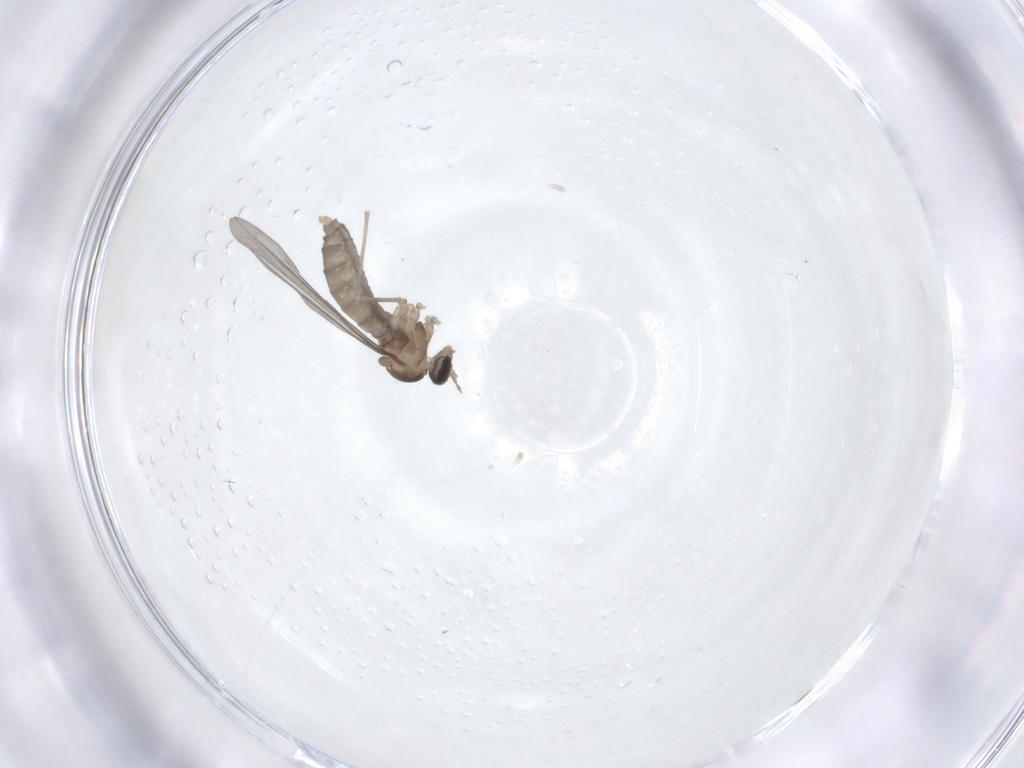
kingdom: Animalia
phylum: Arthropoda
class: Insecta
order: Diptera
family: Cecidomyiidae
